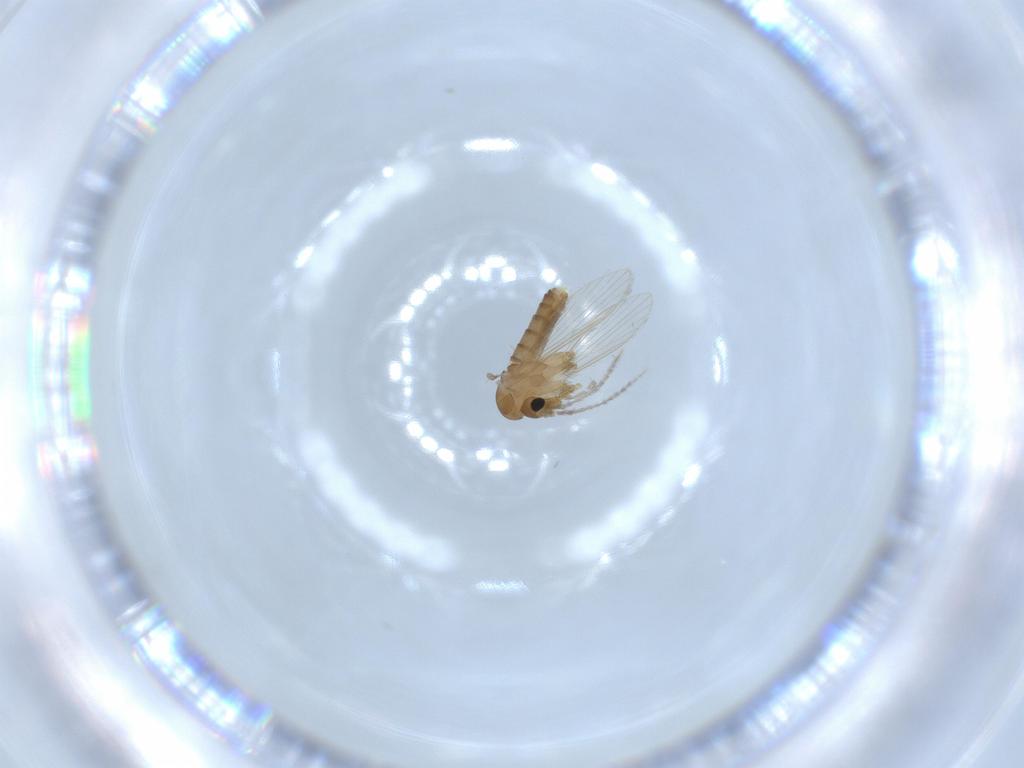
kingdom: Animalia
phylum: Arthropoda
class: Insecta
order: Diptera
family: Psychodidae
